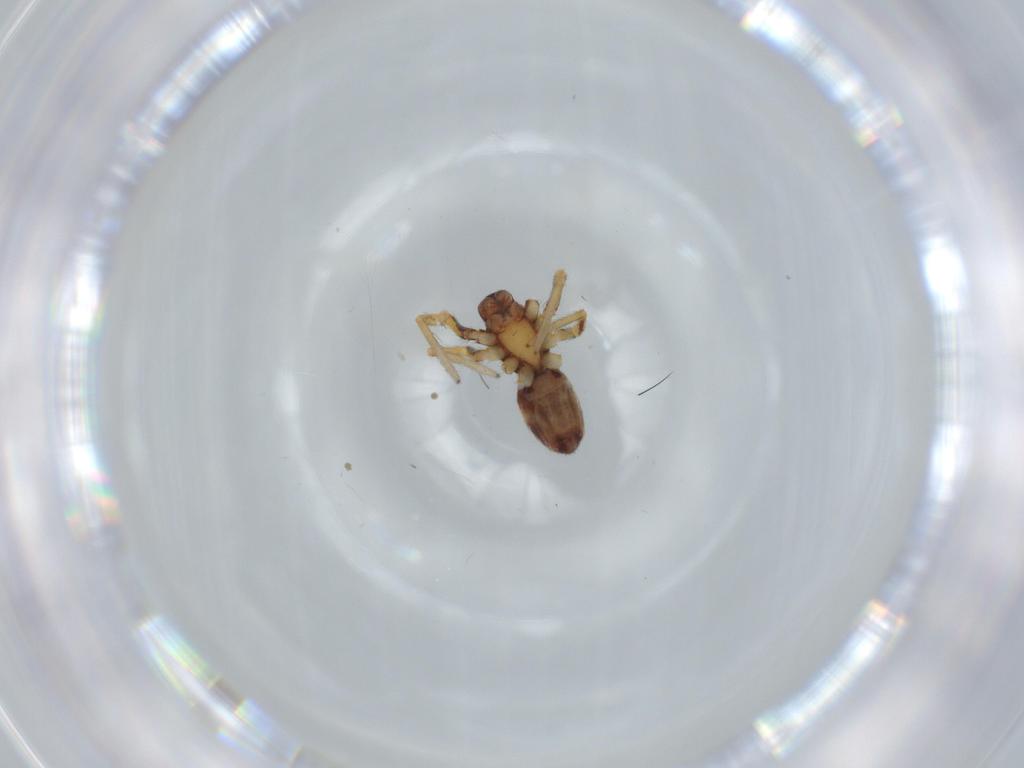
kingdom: Animalia
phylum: Arthropoda
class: Arachnida
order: Araneae
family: Corinnidae
